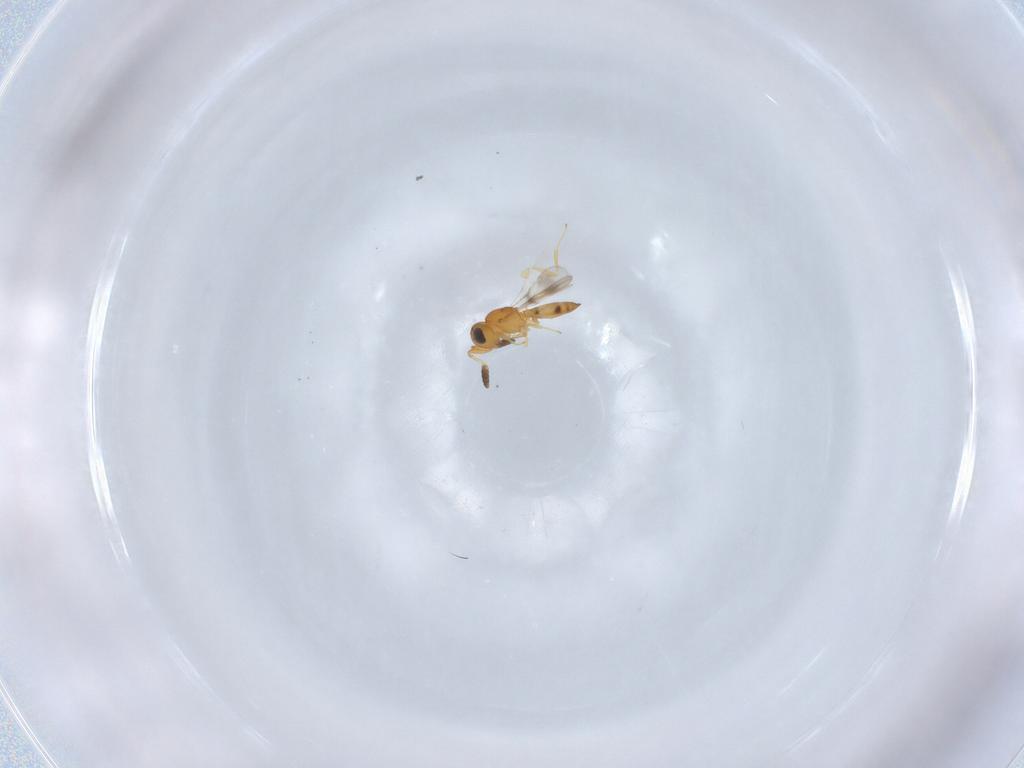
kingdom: Animalia
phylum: Arthropoda
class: Insecta
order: Hymenoptera
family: Scelionidae
